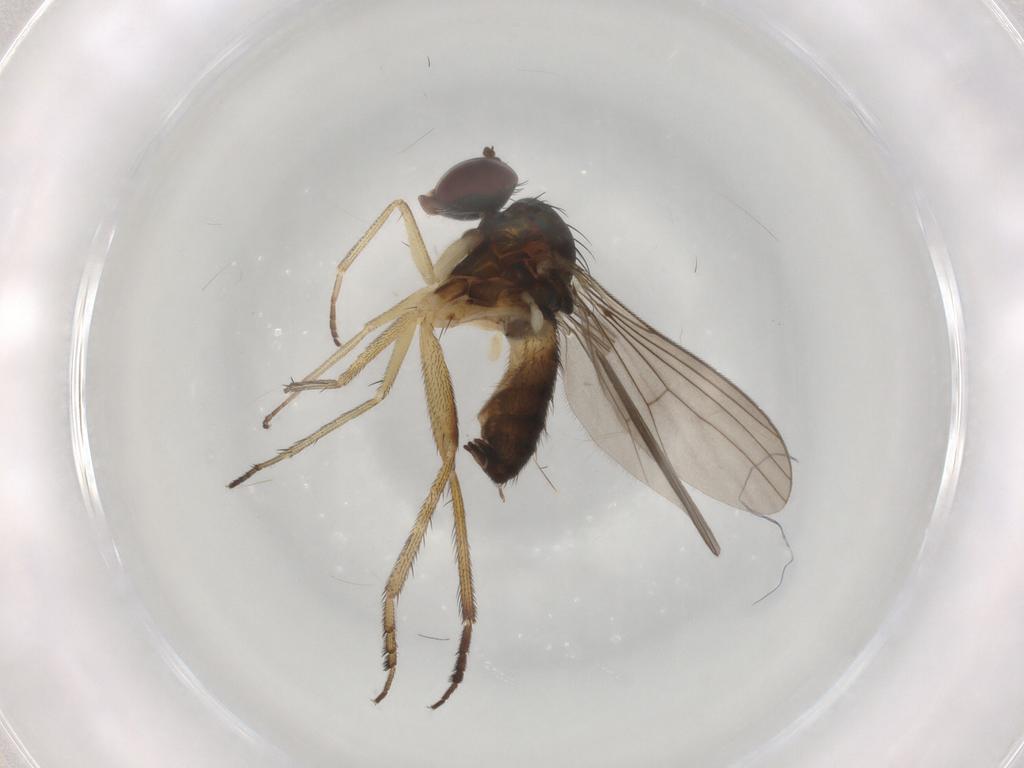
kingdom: Animalia
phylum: Arthropoda
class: Insecta
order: Diptera
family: Dolichopodidae
